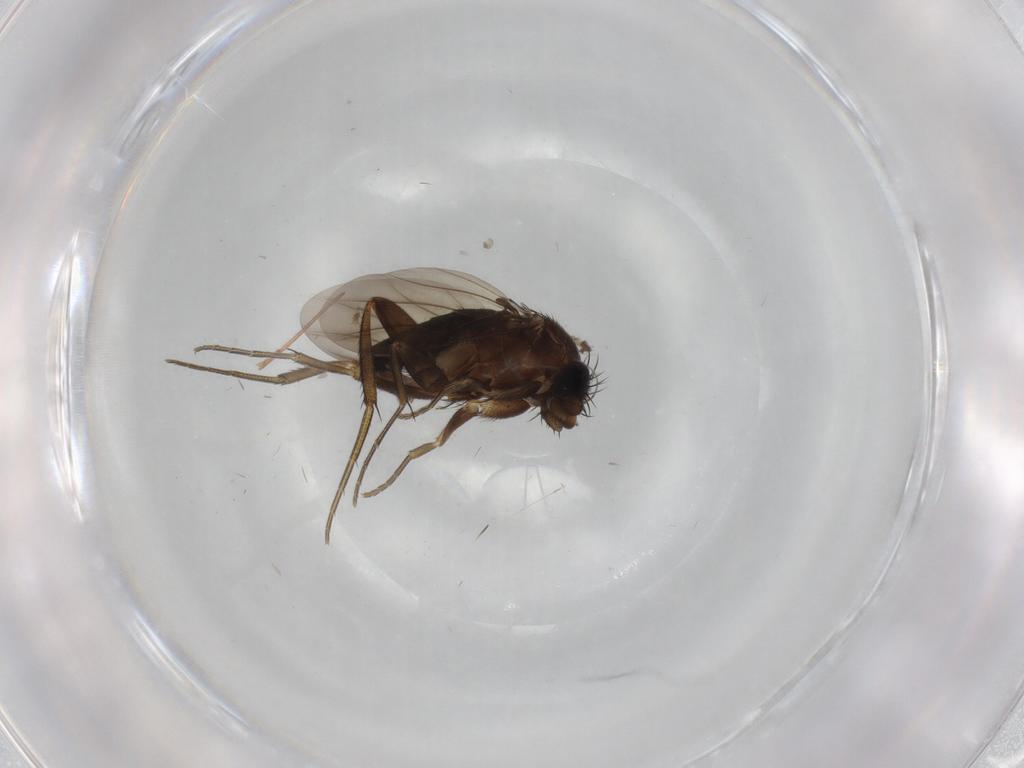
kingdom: Animalia
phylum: Arthropoda
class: Insecta
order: Diptera
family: Phoridae
